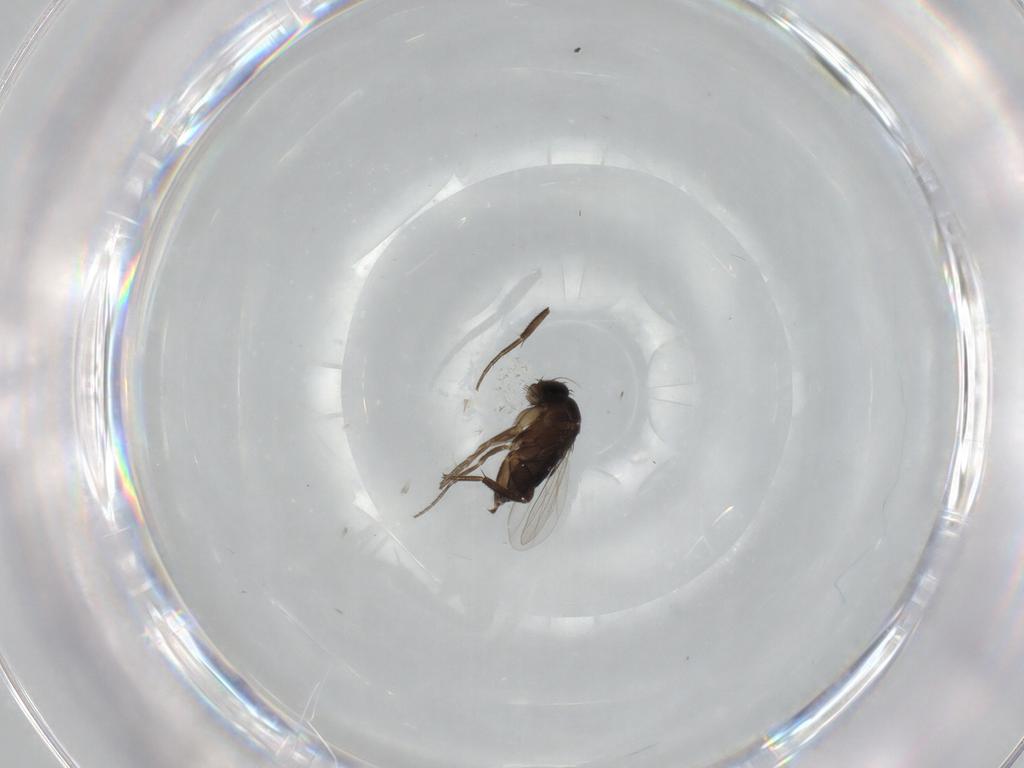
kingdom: Animalia
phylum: Arthropoda
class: Insecta
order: Diptera
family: Phoridae
